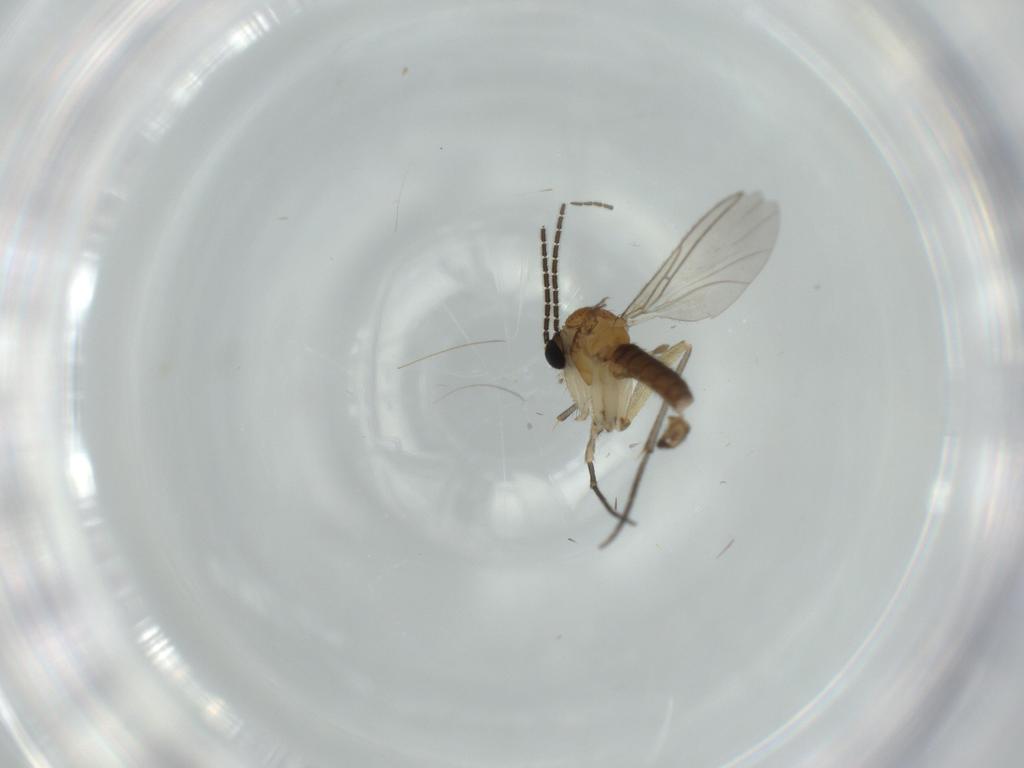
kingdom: Animalia
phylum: Arthropoda
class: Insecta
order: Diptera
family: Sciaridae
